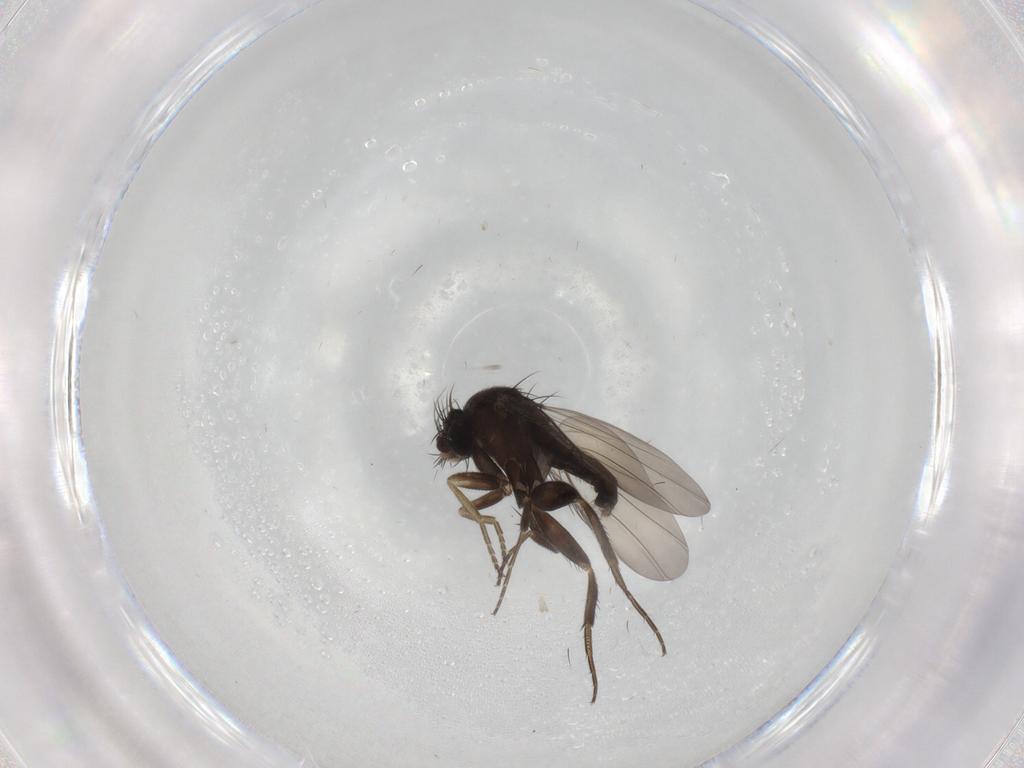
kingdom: Animalia
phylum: Arthropoda
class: Insecta
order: Diptera
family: Phoridae
